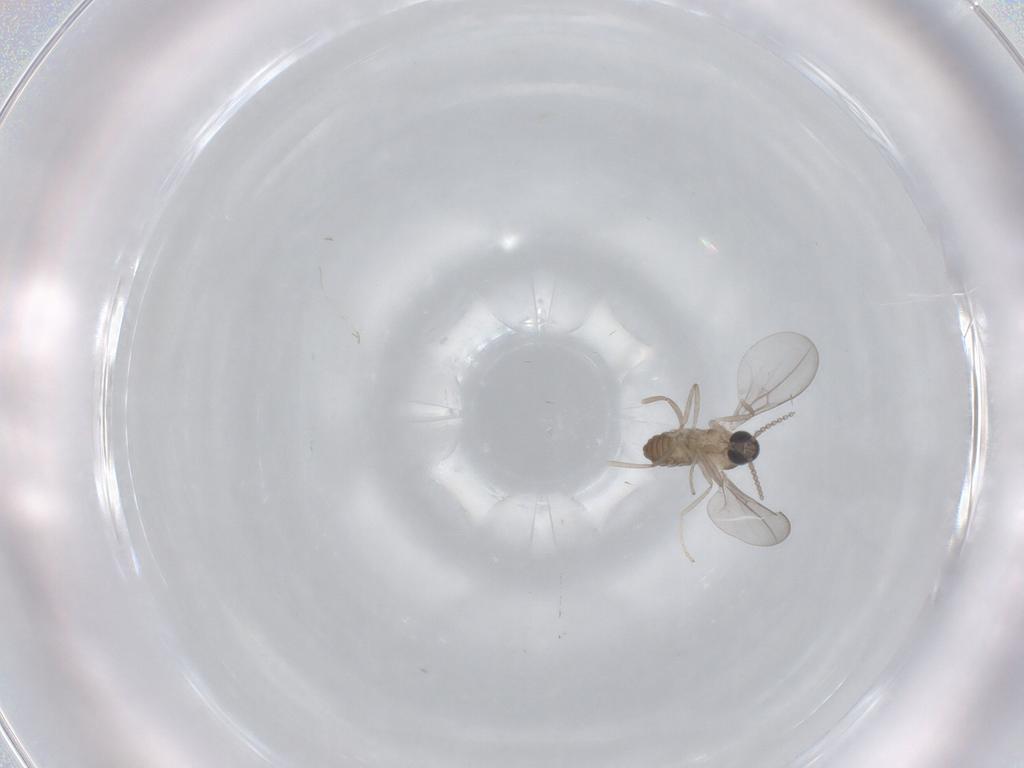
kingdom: Animalia
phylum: Arthropoda
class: Insecta
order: Diptera
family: Cecidomyiidae
